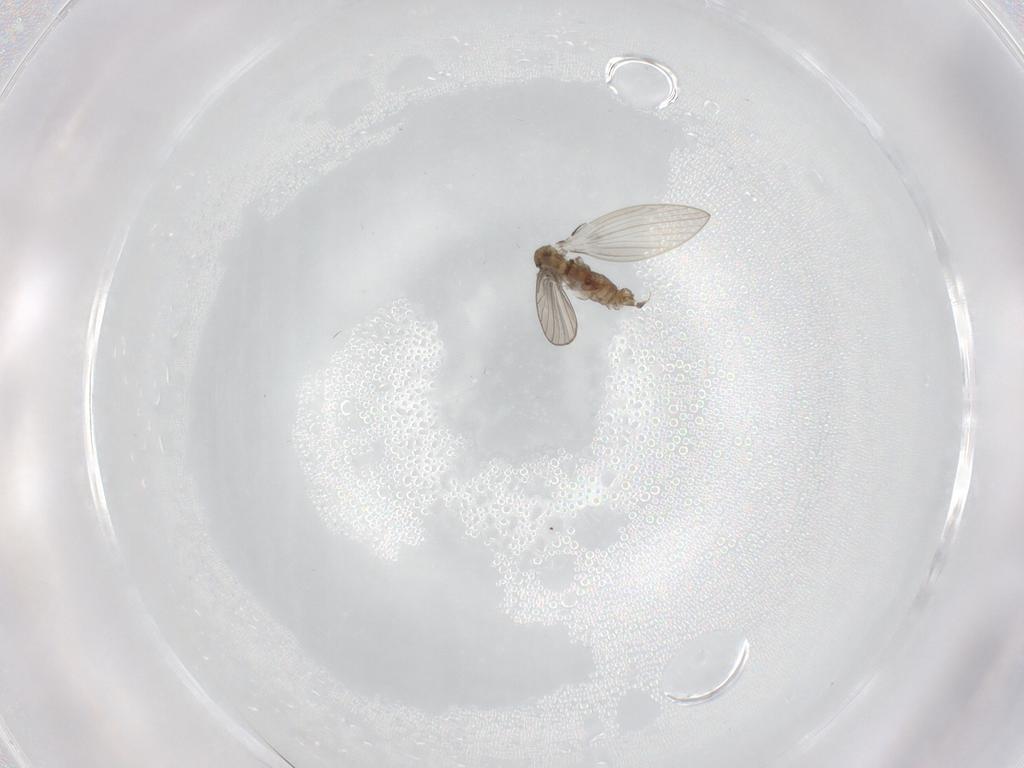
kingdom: Animalia
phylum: Arthropoda
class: Insecta
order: Diptera
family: Psychodidae
